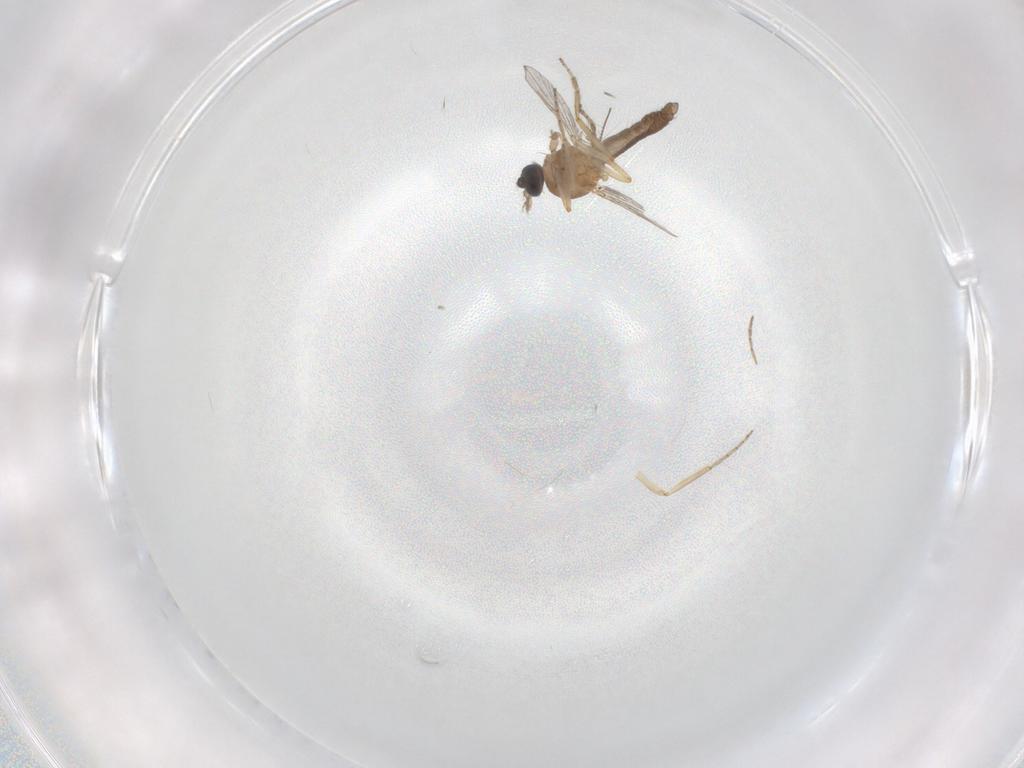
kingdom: Animalia
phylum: Arthropoda
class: Insecta
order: Diptera
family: Ceratopogonidae
